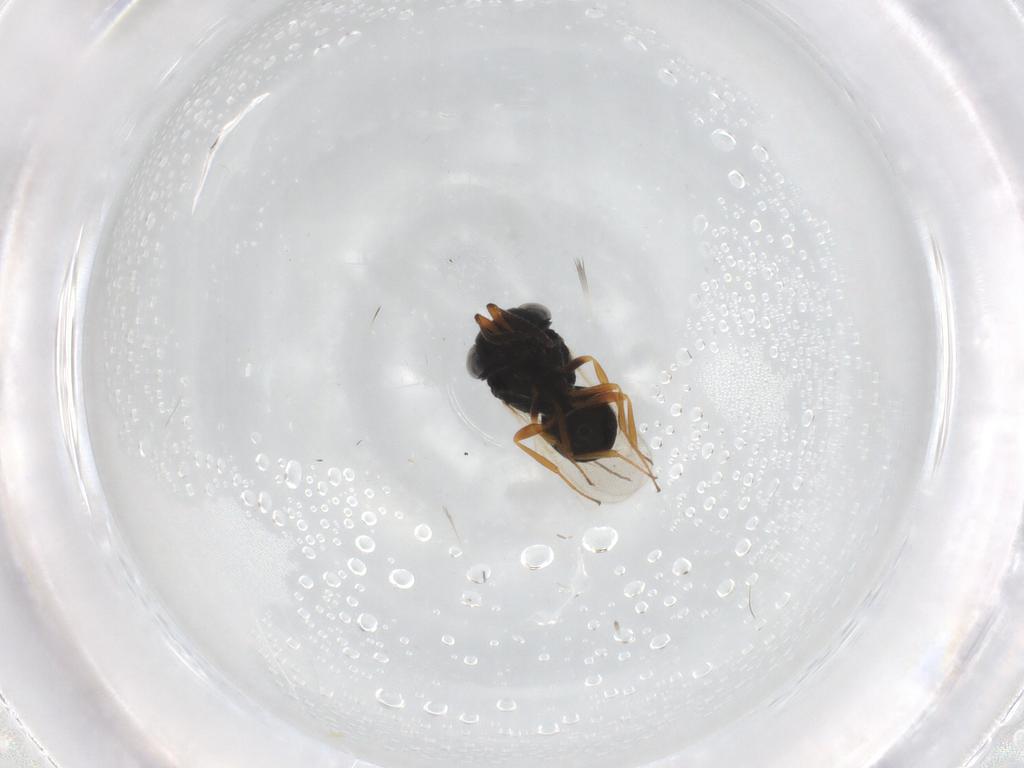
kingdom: Animalia
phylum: Arthropoda
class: Insecta
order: Hymenoptera
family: Scelionidae
